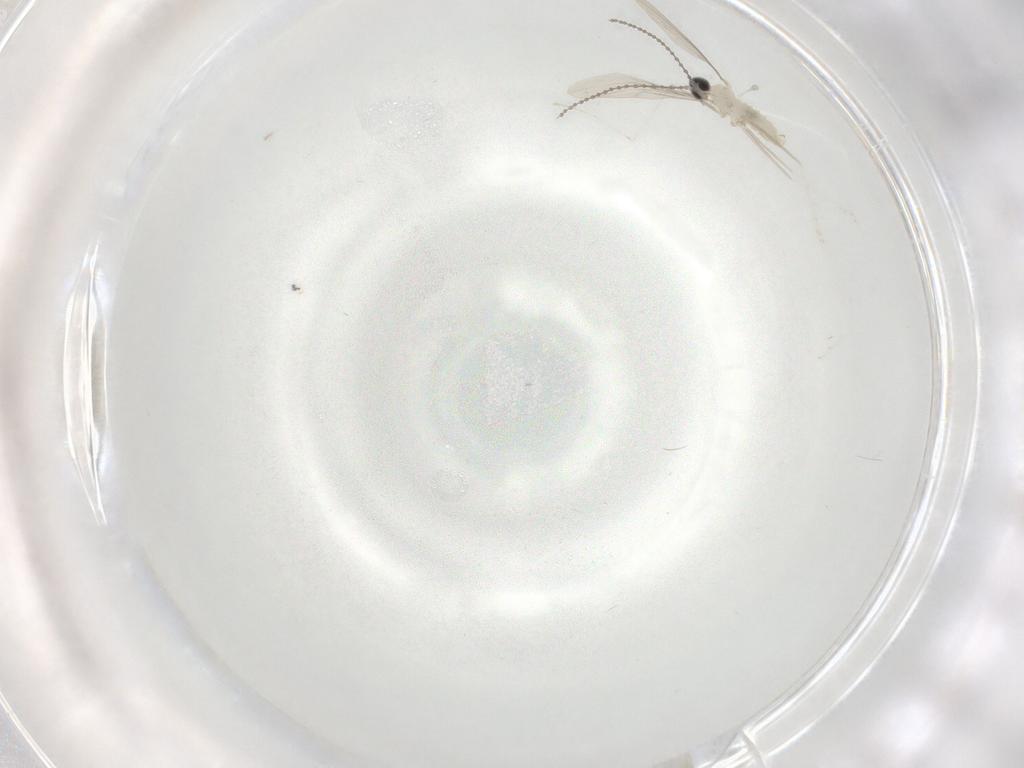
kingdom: Animalia
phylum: Arthropoda
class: Insecta
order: Diptera
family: Cecidomyiidae
